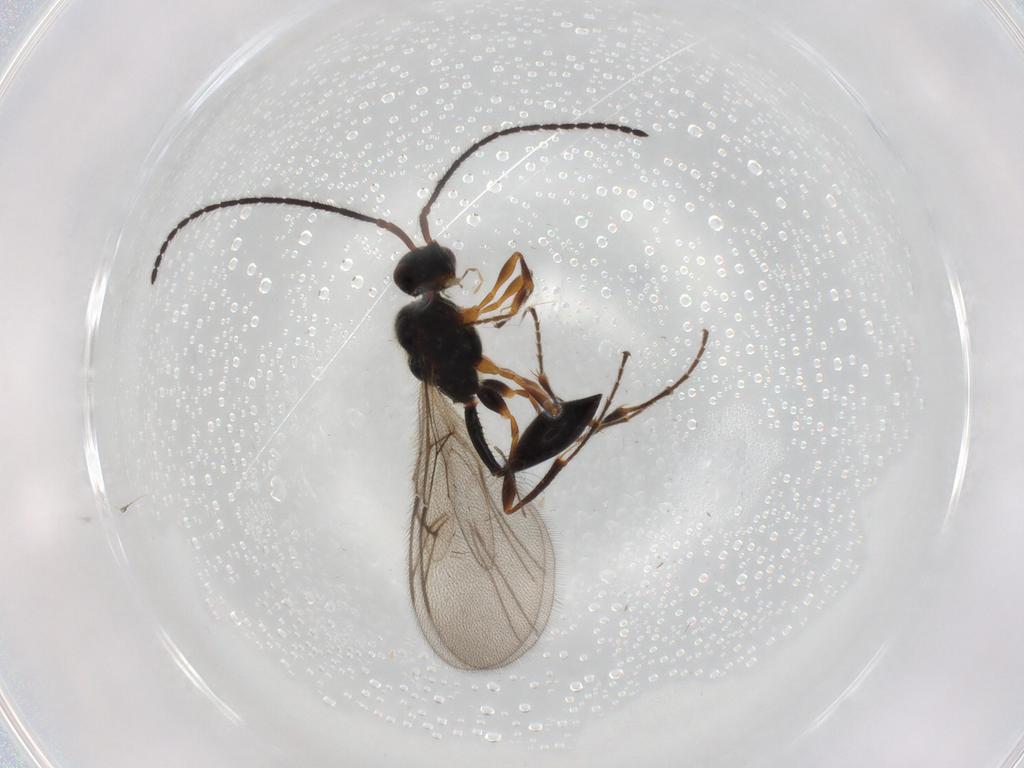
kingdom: Animalia
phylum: Arthropoda
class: Insecta
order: Hymenoptera
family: Diapriidae
